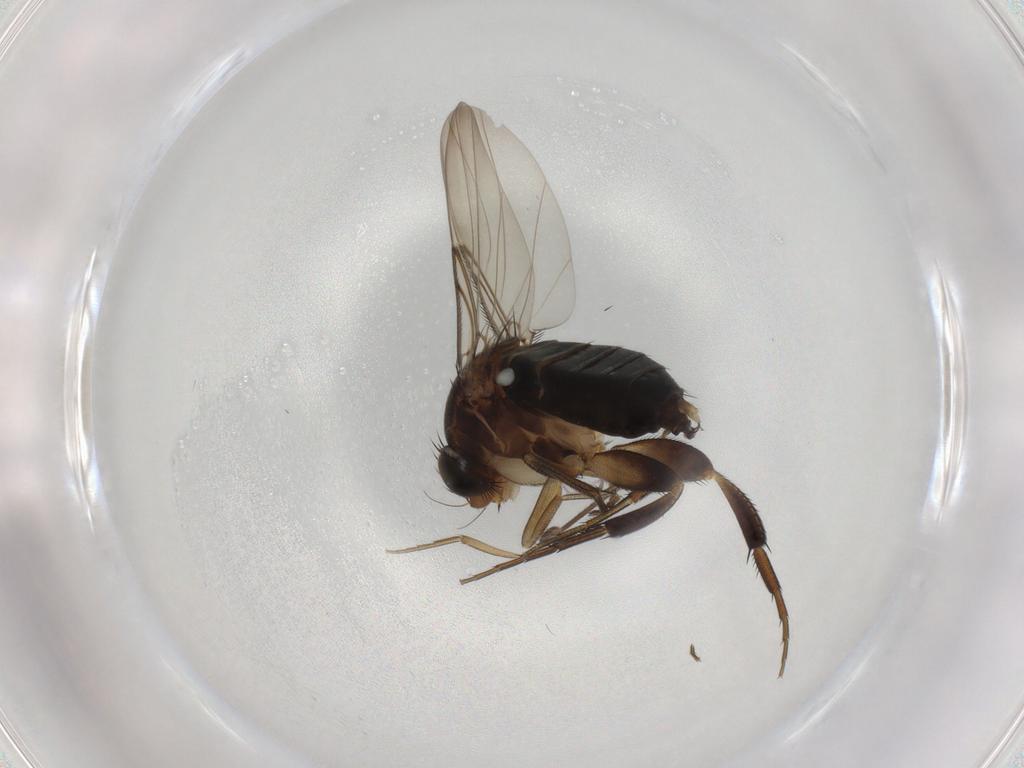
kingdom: Animalia
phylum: Arthropoda
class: Insecta
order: Diptera
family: Phoridae
